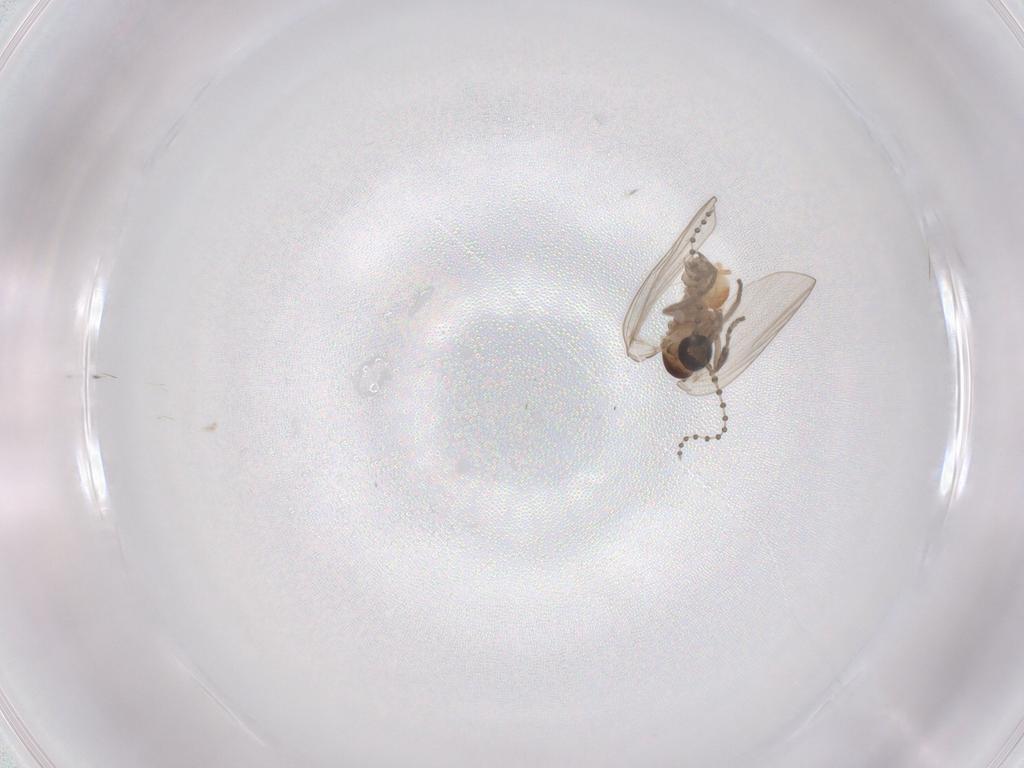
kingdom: Animalia
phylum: Arthropoda
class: Insecta
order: Diptera
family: Psychodidae
